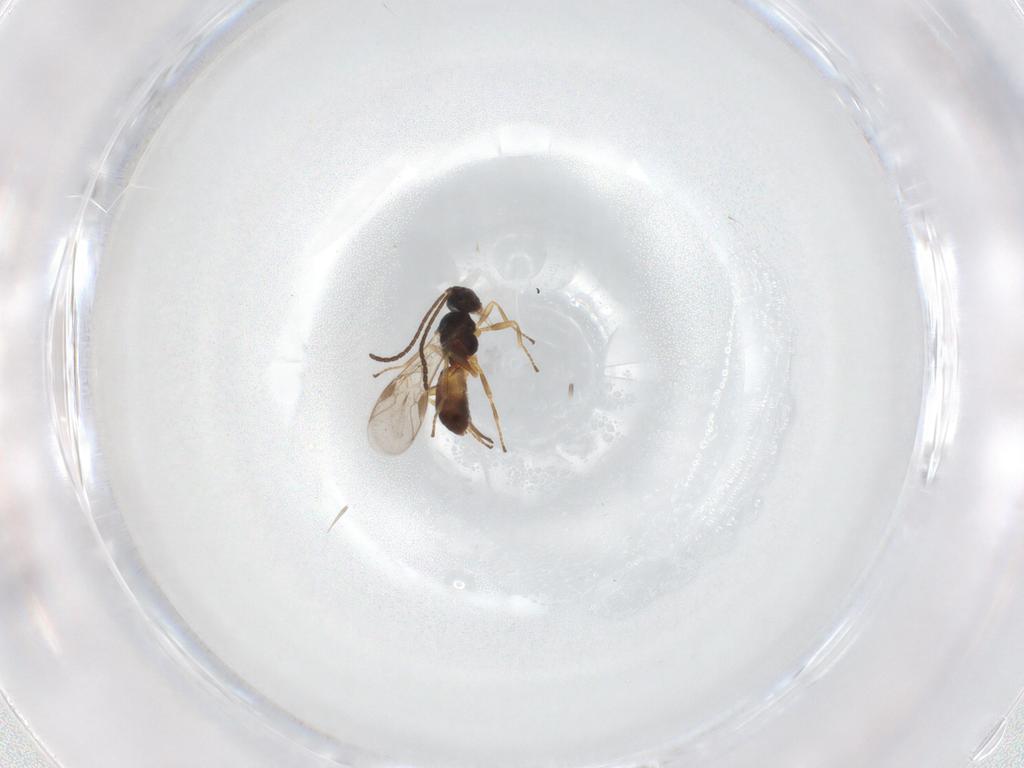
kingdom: Animalia
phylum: Arthropoda
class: Insecta
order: Hymenoptera
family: Braconidae
